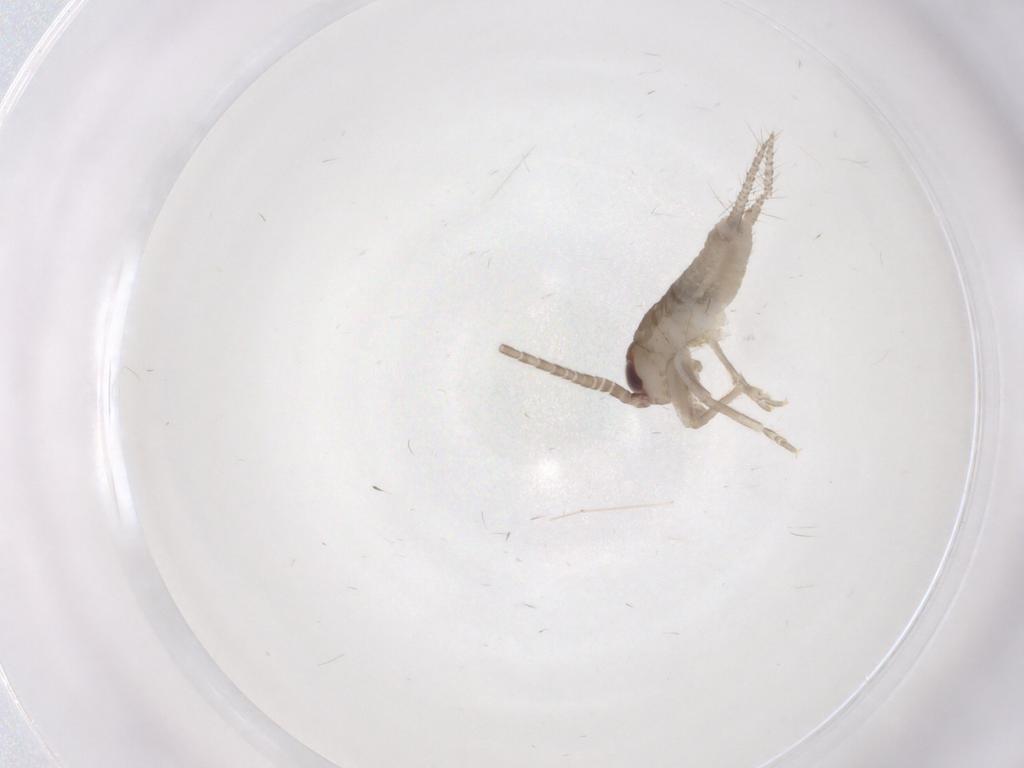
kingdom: Animalia
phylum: Arthropoda
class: Insecta
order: Orthoptera
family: Gryllidae
